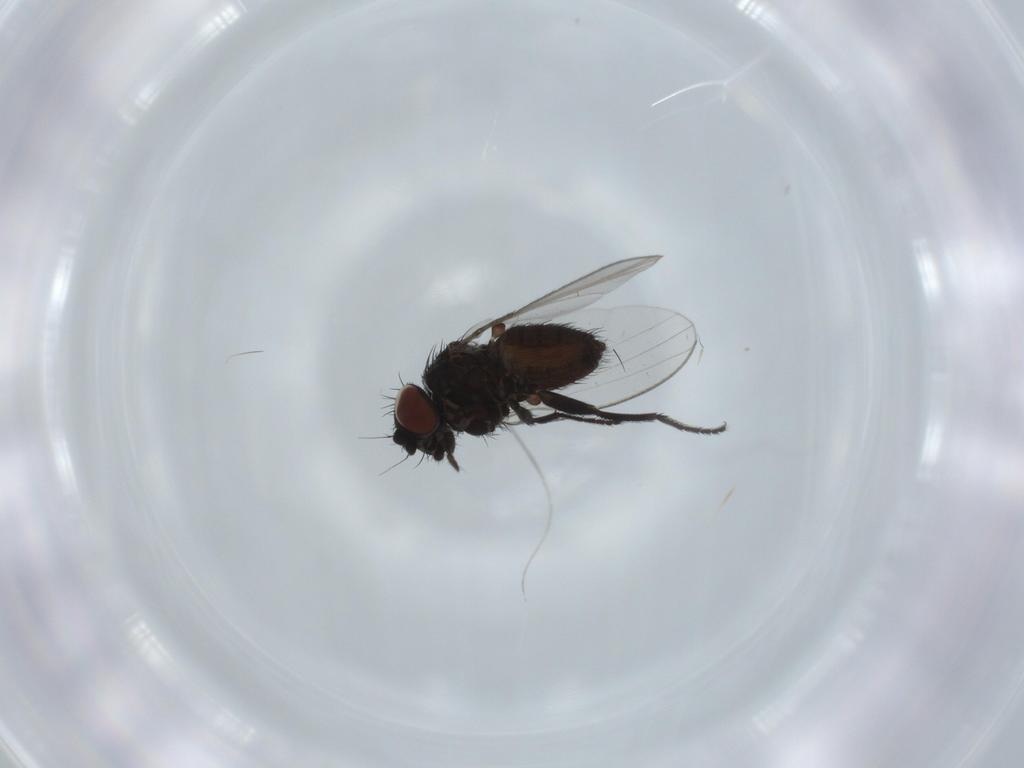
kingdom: Animalia
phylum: Arthropoda
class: Insecta
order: Diptera
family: Milichiidae
